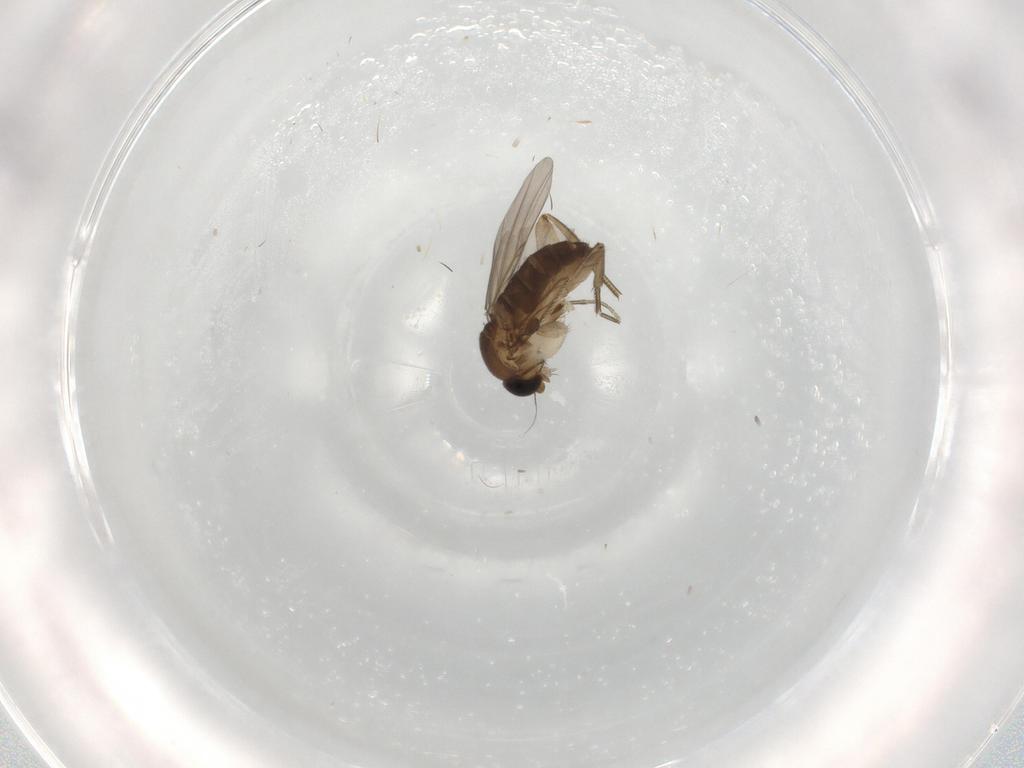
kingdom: Animalia
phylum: Arthropoda
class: Insecta
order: Diptera
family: Phoridae
